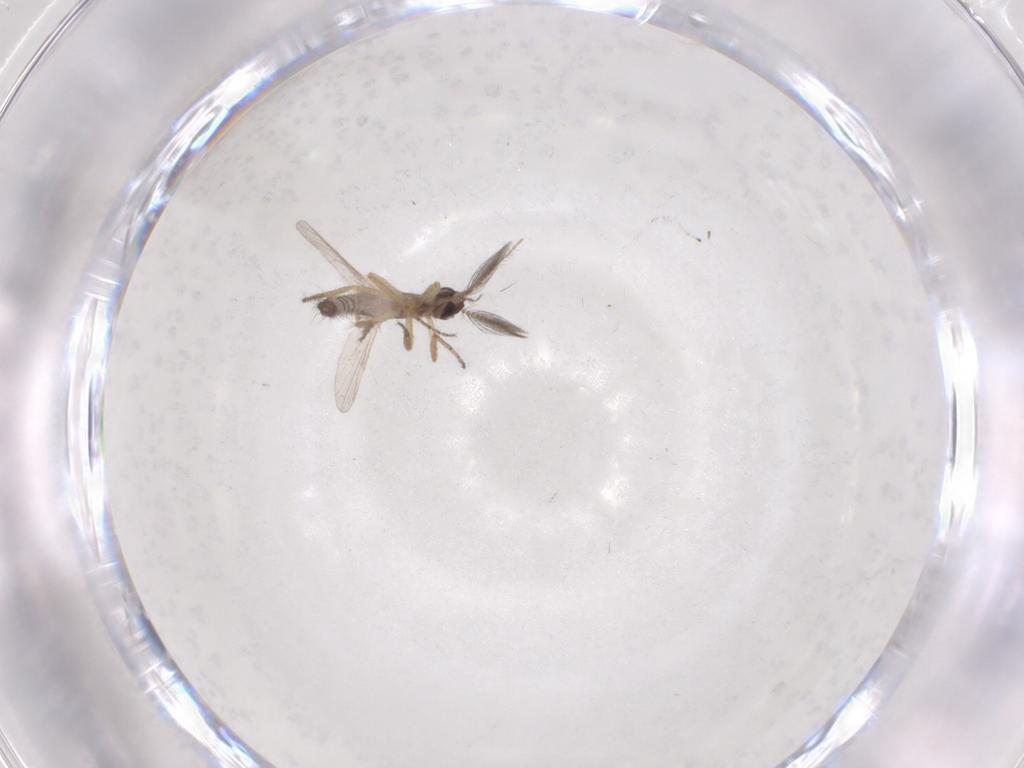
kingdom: Animalia
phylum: Arthropoda
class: Insecta
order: Diptera
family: Phoridae
